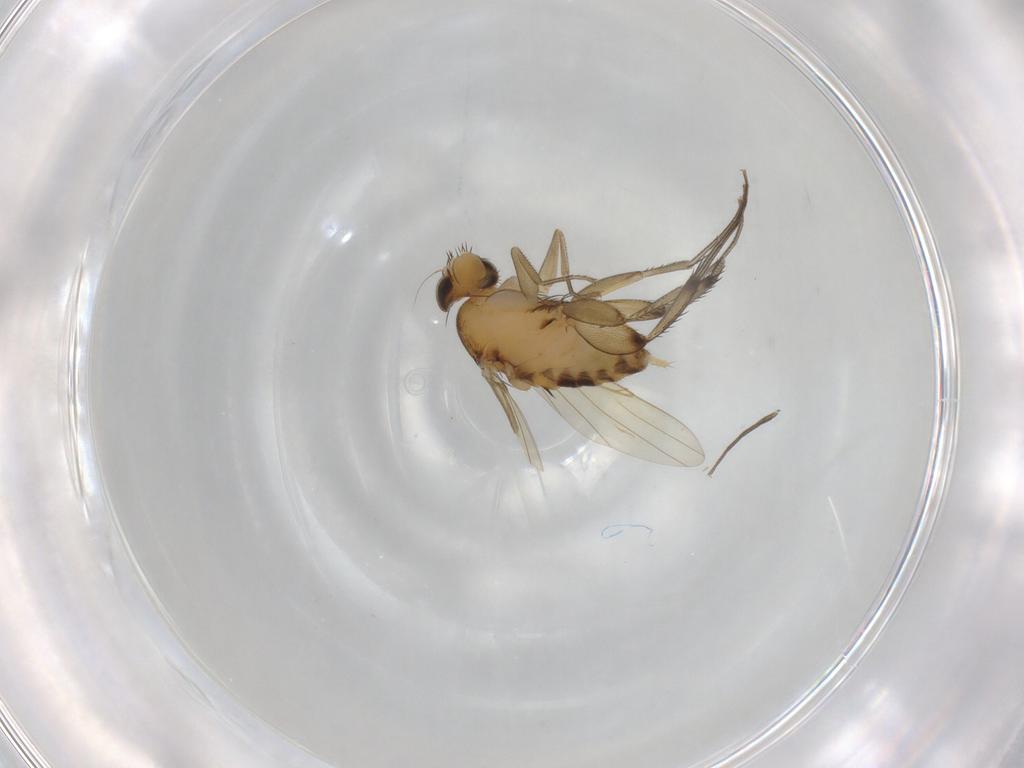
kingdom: Animalia
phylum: Arthropoda
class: Insecta
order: Diptera
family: Phoridae
